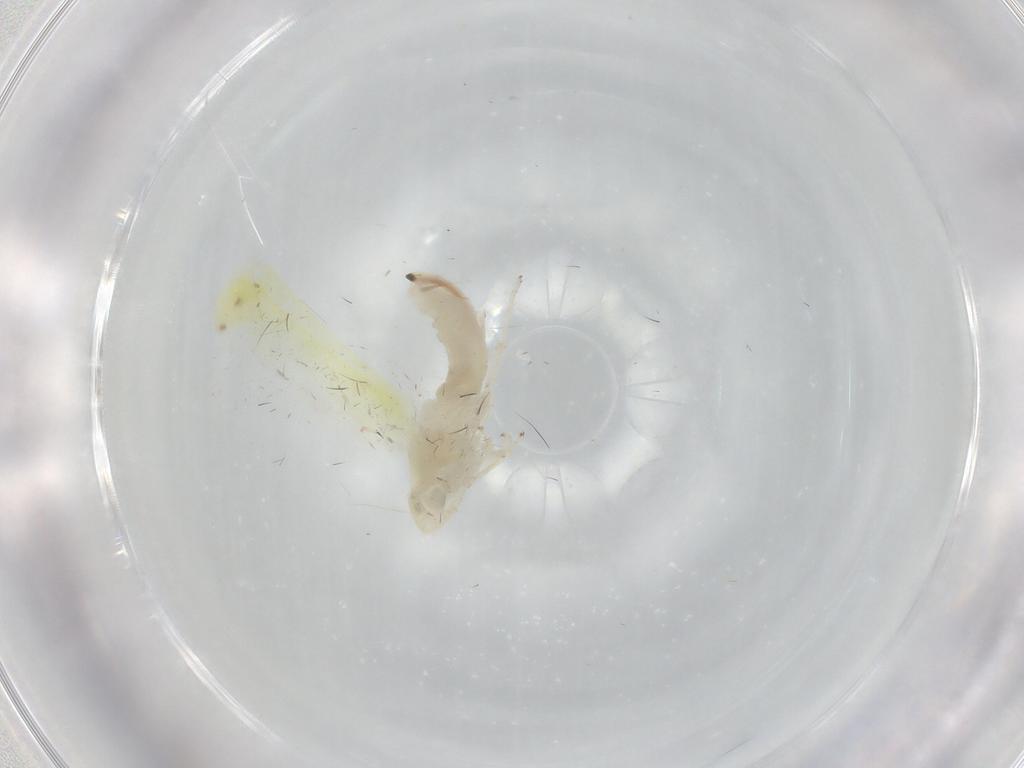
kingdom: Animalia
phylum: Arthropoda
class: Insecta
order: Hemiptera
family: Cicadellidae
